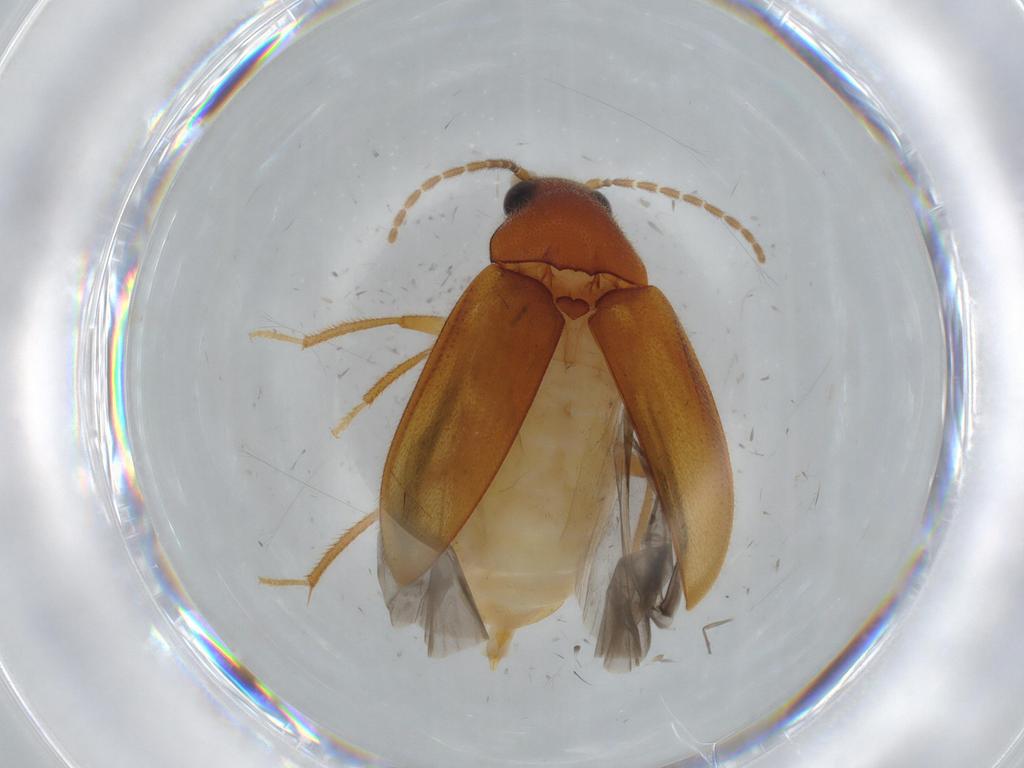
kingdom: Animalia
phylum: Arthropoda
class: Insecta
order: Coleoptera
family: Ptilodactylidae
